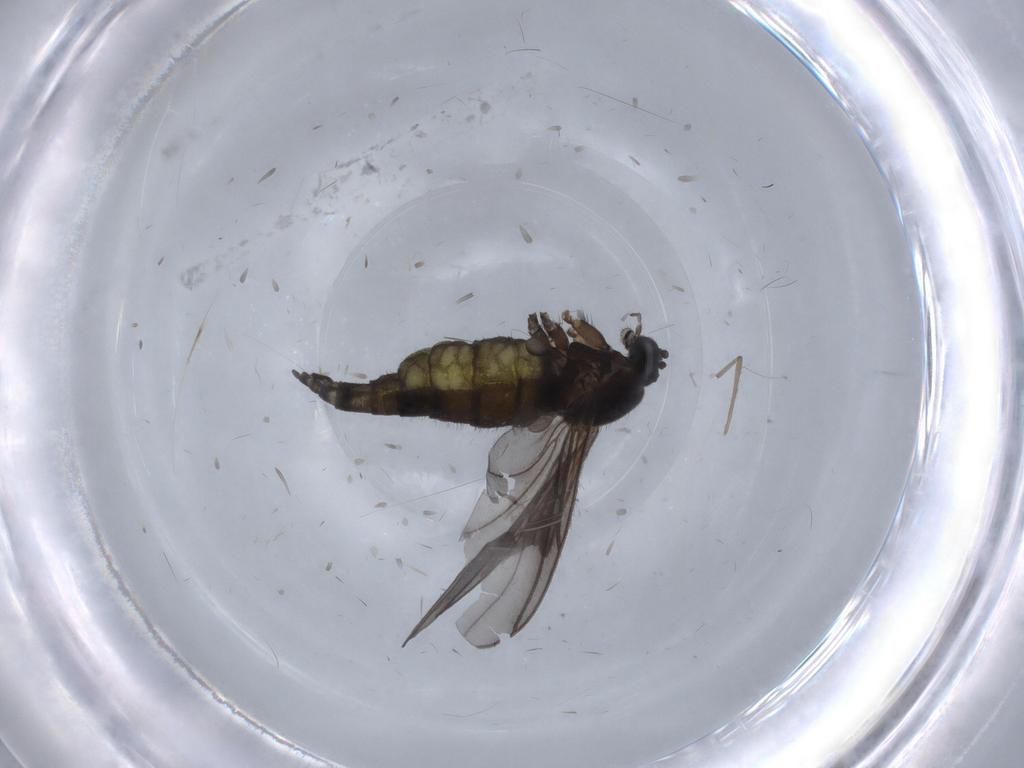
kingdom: Animalia
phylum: Arthropoda
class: Insecta
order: Diptera
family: Sciaridae
